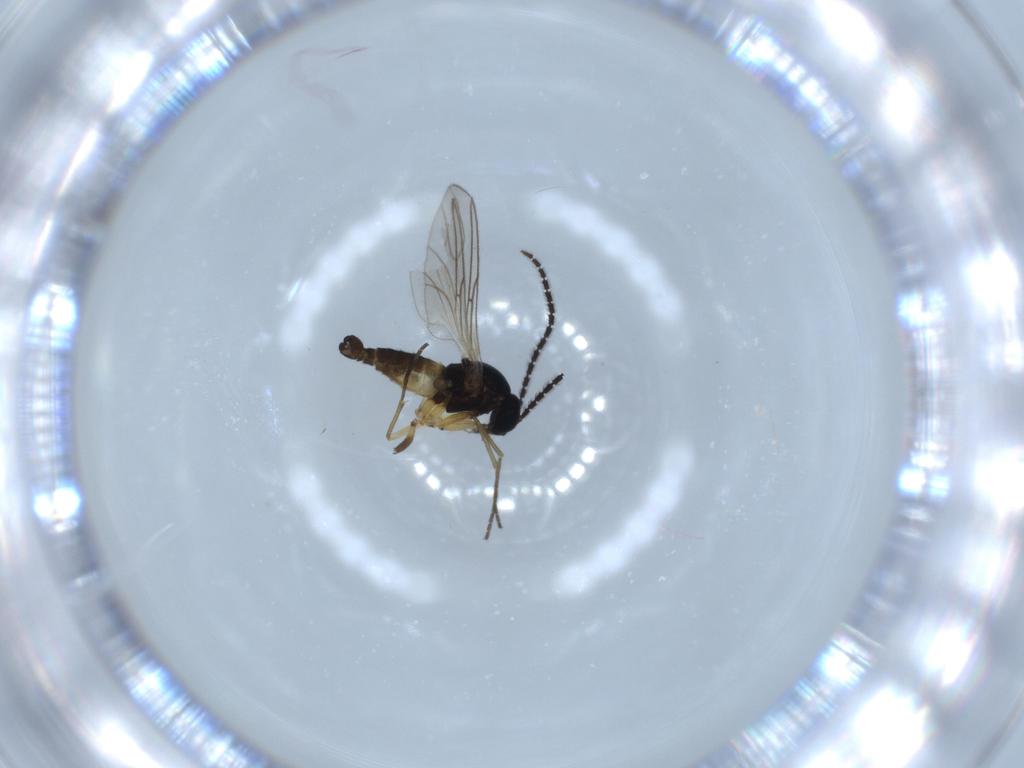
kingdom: Animalia
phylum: Arthropoda
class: Insecta
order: Diptera
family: Sciaridae
